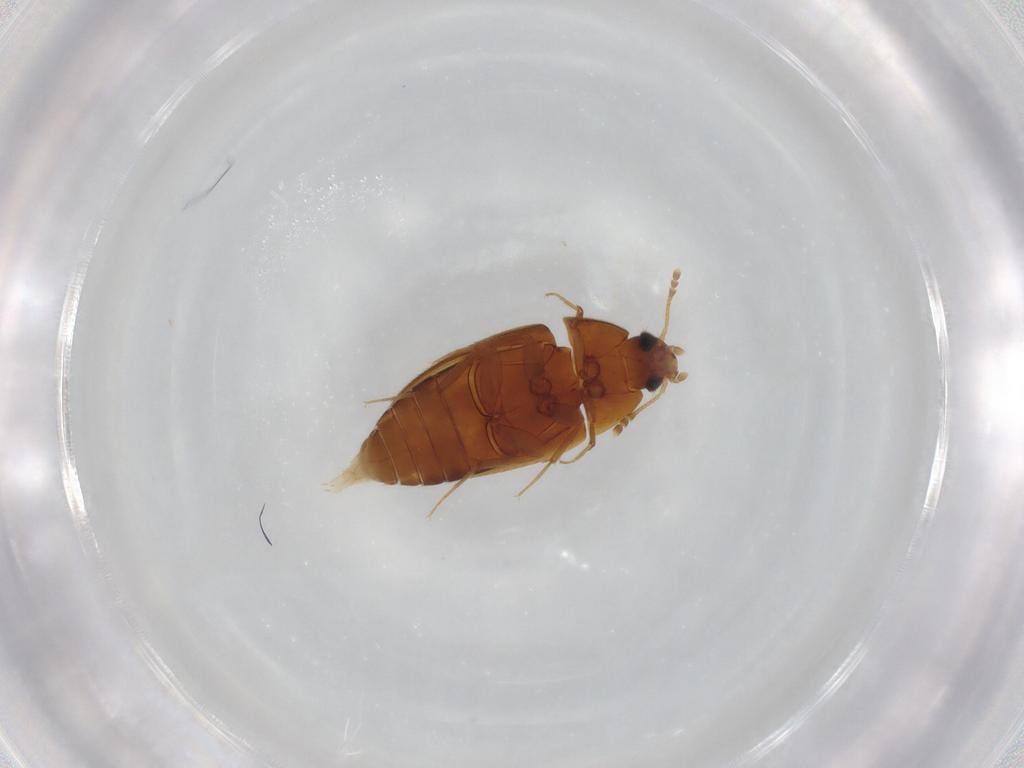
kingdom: Animalia
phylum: Arthropoda
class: Insecta
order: Coleoptera
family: Mycetophagidae
